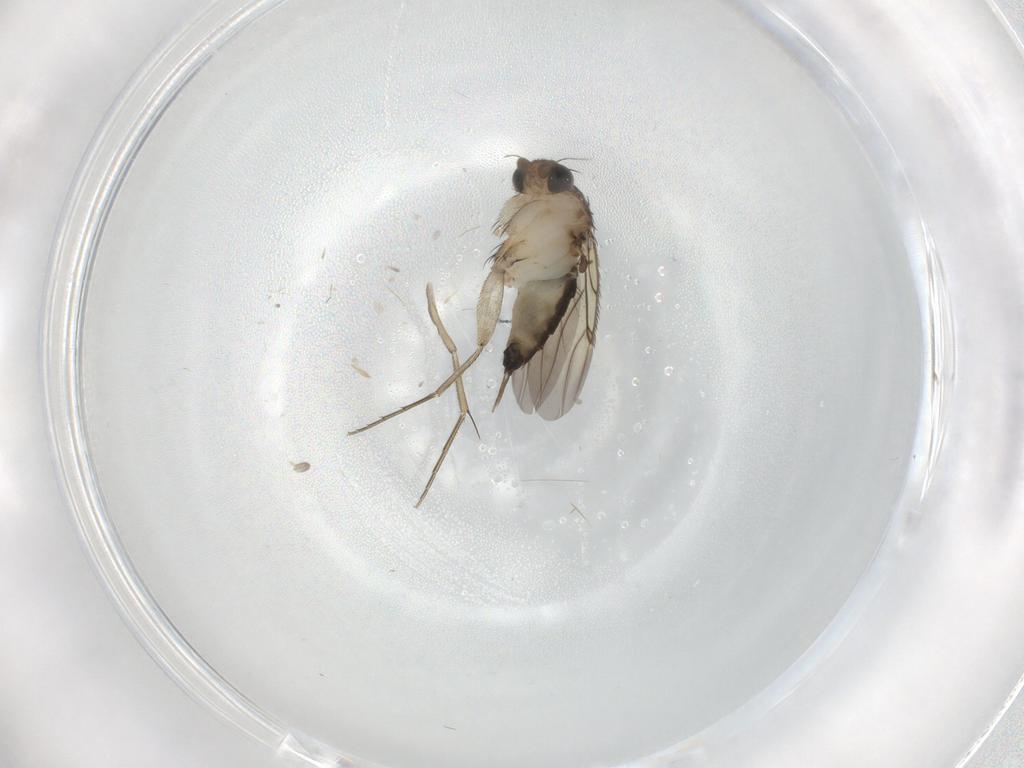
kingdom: Animalia
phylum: Arthropoda
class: Insecta
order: Diptera
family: Phoridae
